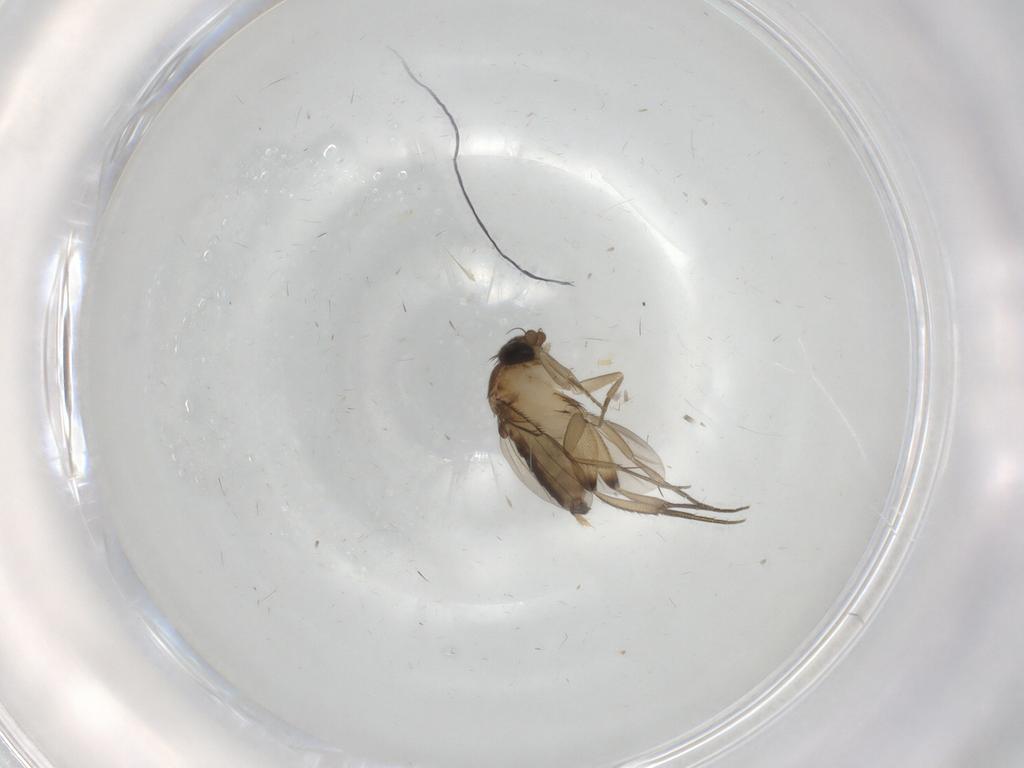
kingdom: Animalia
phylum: Arthropoda
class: Insecta
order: Diptera
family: Phoridae
